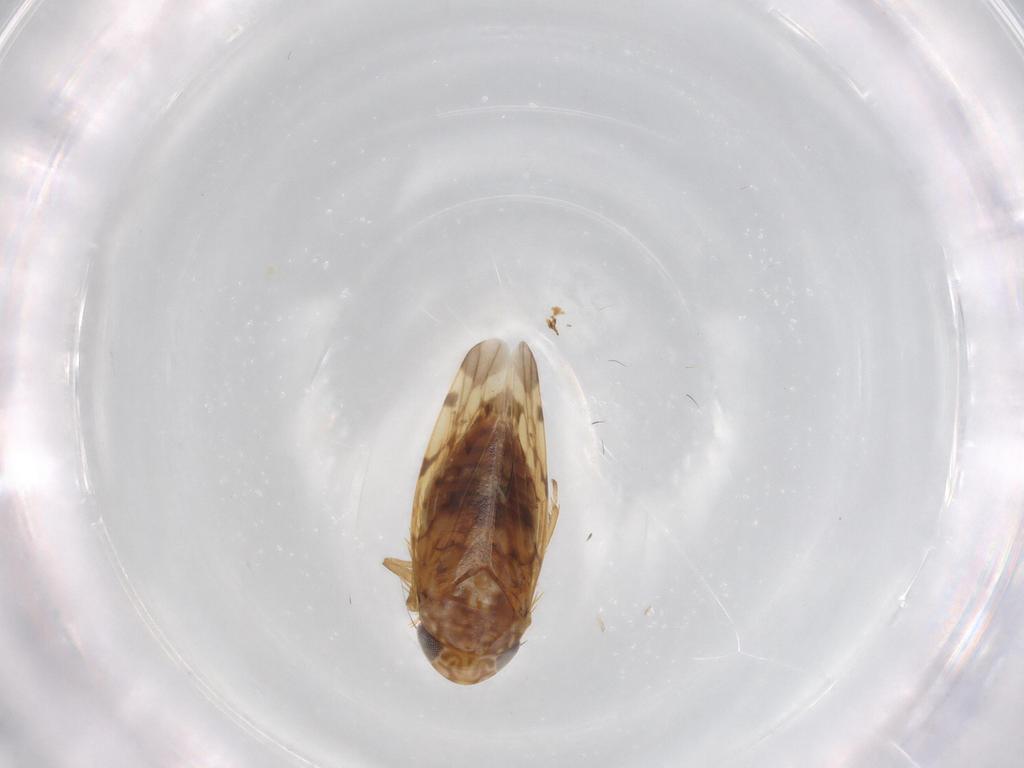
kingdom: Animalia
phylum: Arthropoda
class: Insecta
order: Hemiptera
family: Cicadellidae
